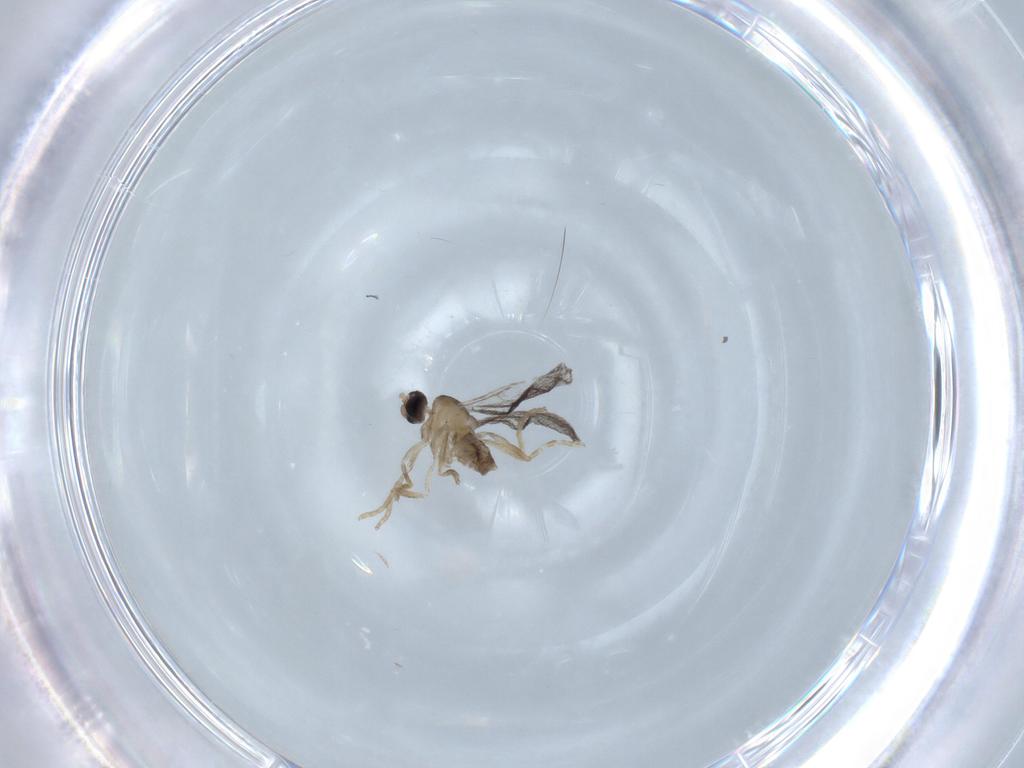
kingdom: Animalia
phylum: Arthropoda
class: Insecta
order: Diptera
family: Cecidomyiidae
